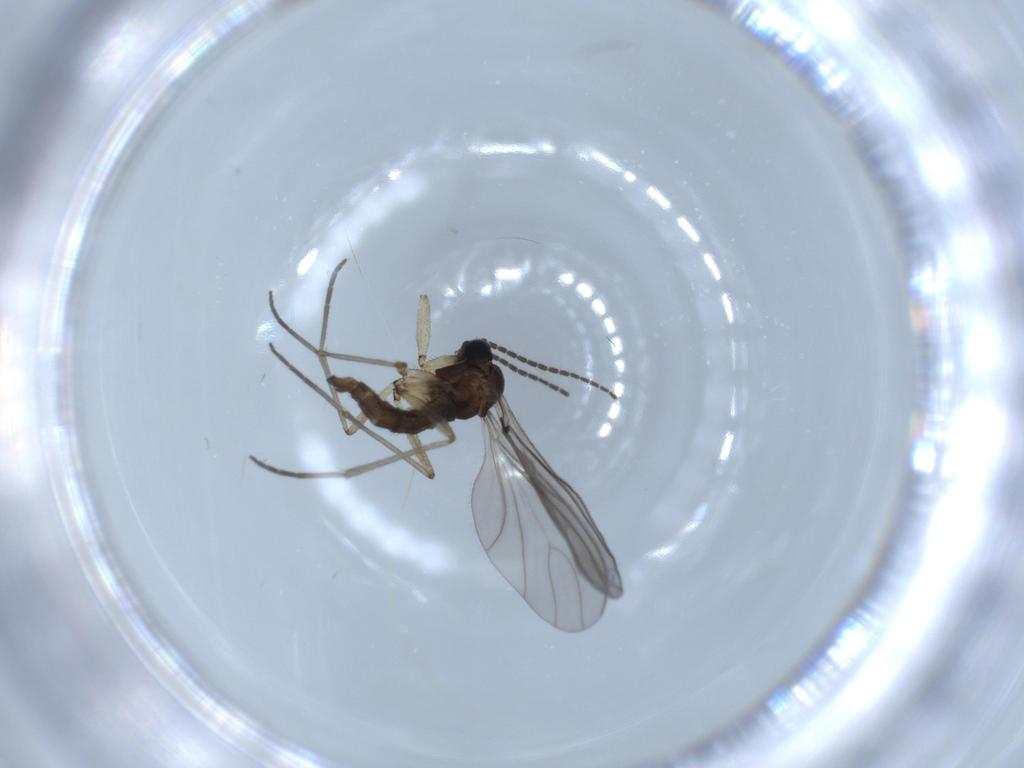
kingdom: Animalia
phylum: Arthropoda
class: Insecta
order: Diptera
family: Sciaridae
